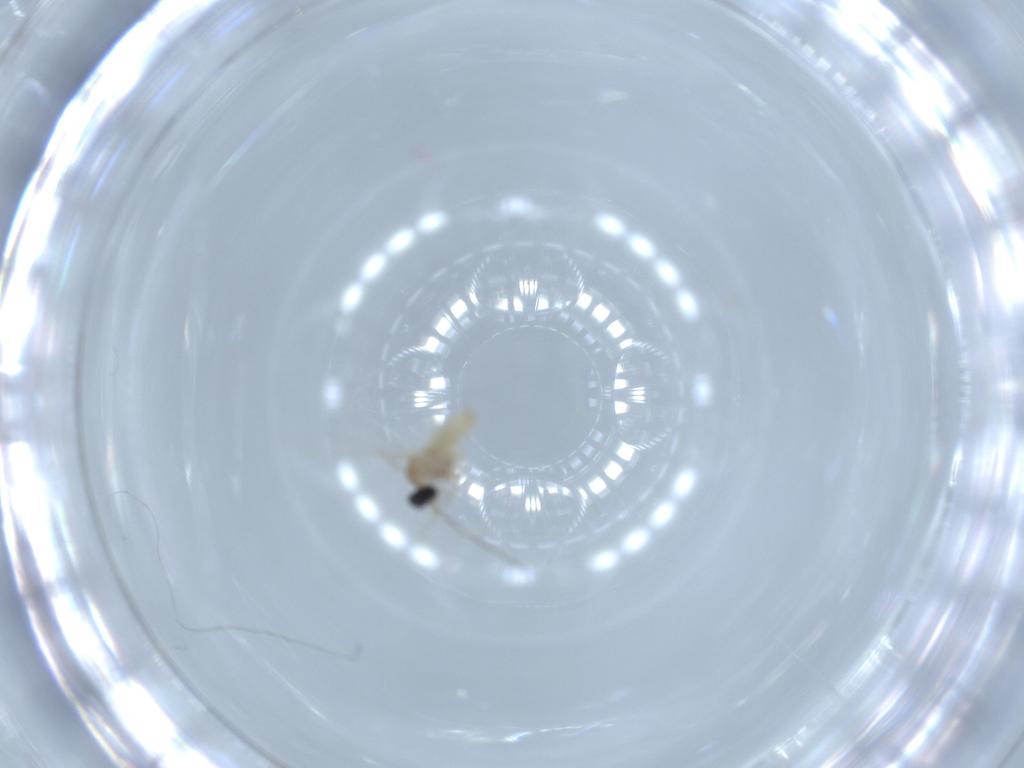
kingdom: Animalia
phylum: Arthropoda
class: Insecta
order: Diptera
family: Cecidomyiidae
